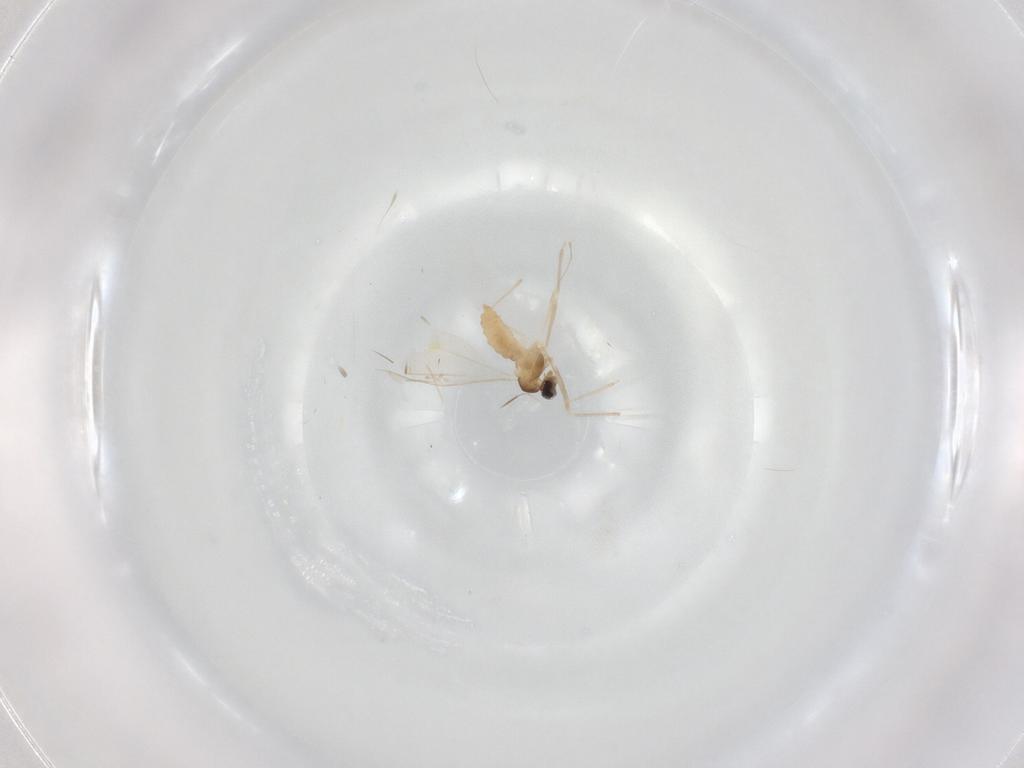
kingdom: Animalia
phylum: Arthropoda
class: Insecta
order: Diptera
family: Cecidomyiidae
